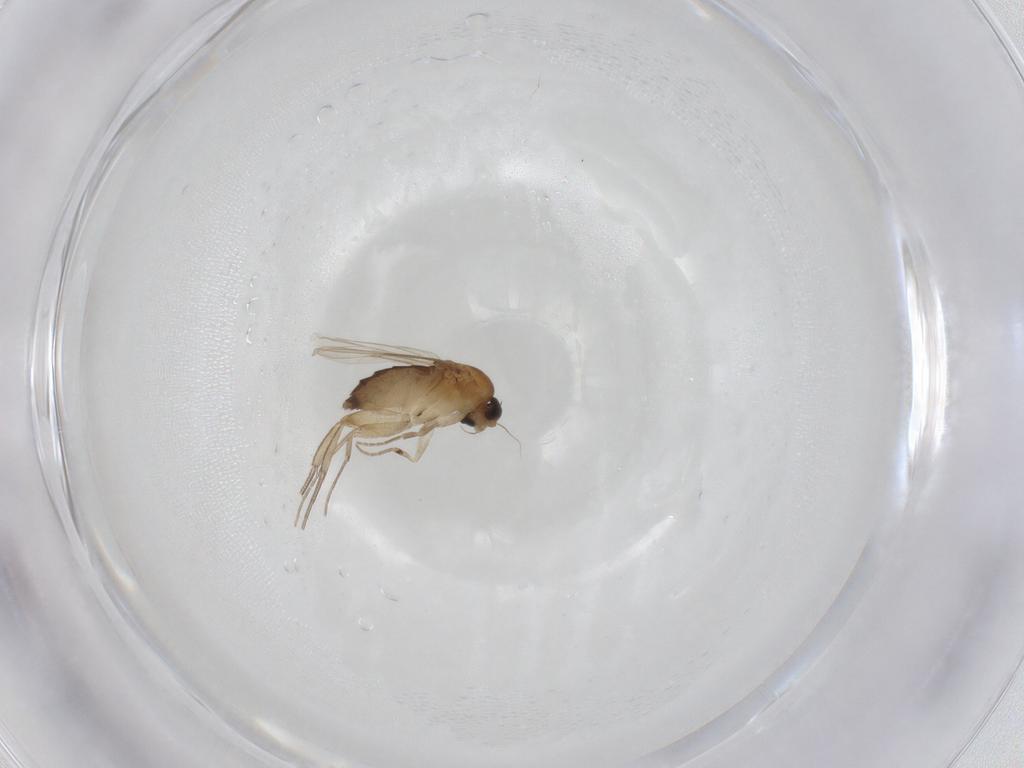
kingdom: Animalia
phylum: Arthropoda
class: Insecta
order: Diptera
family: Phoridae
